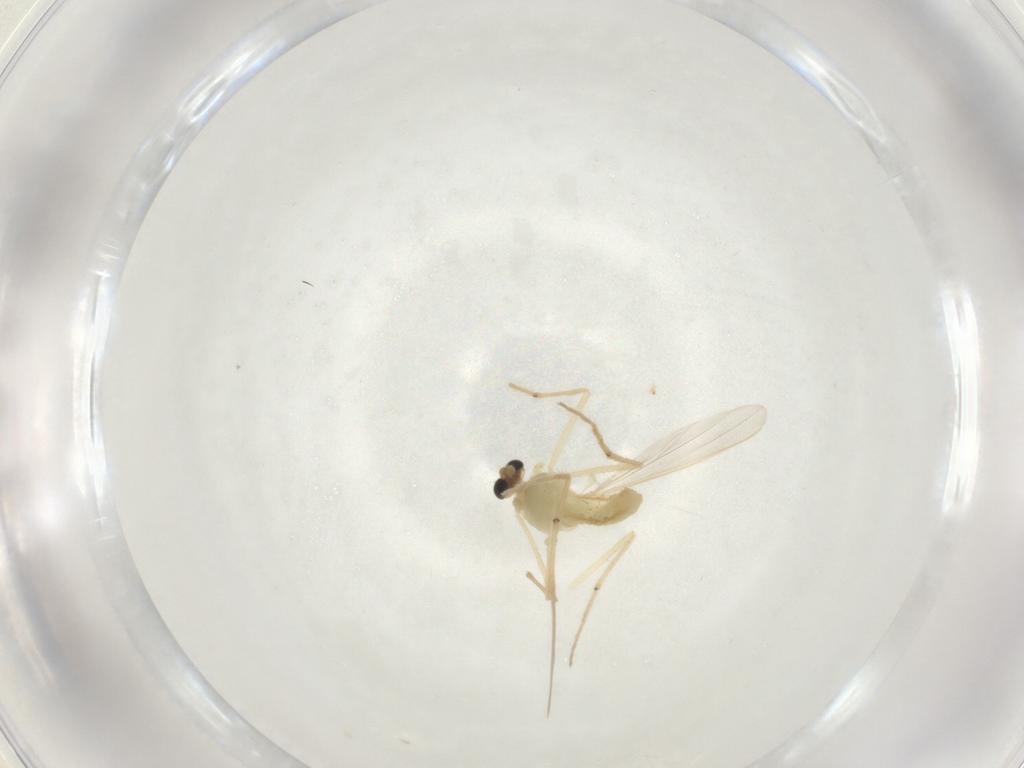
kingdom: Animalia
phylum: Arthropoda
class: Insecta
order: Diptera
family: Chironomidae
